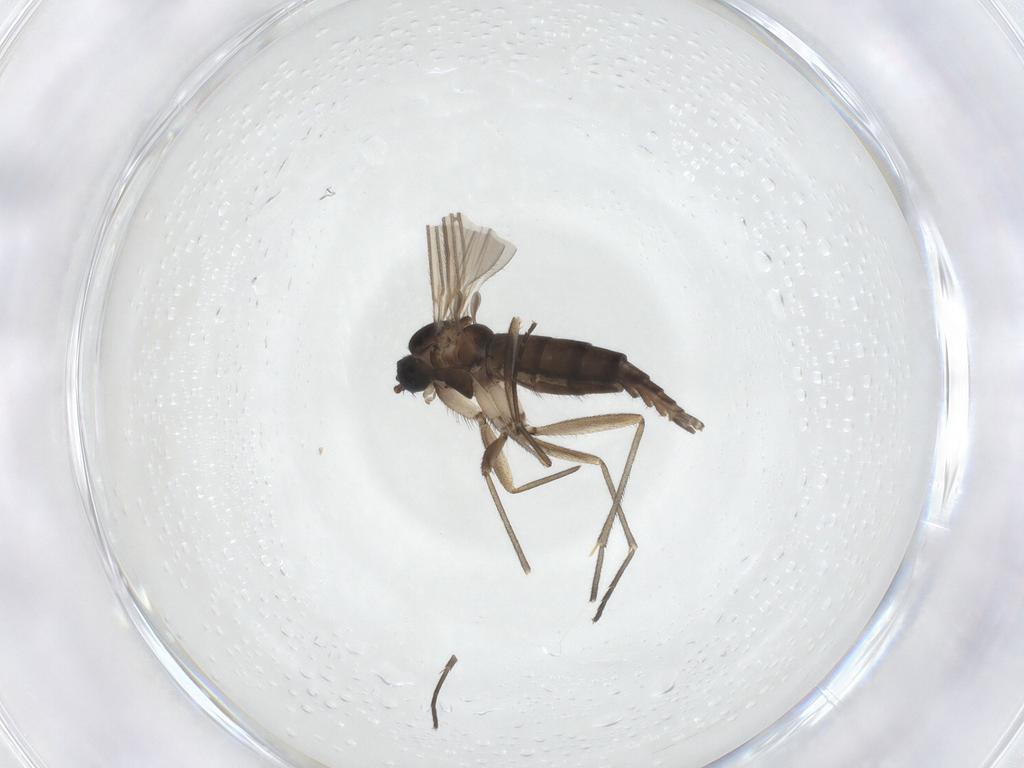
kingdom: Animalia
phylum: Arthropoda
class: Insecta
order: Diptera
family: Sciaridae
